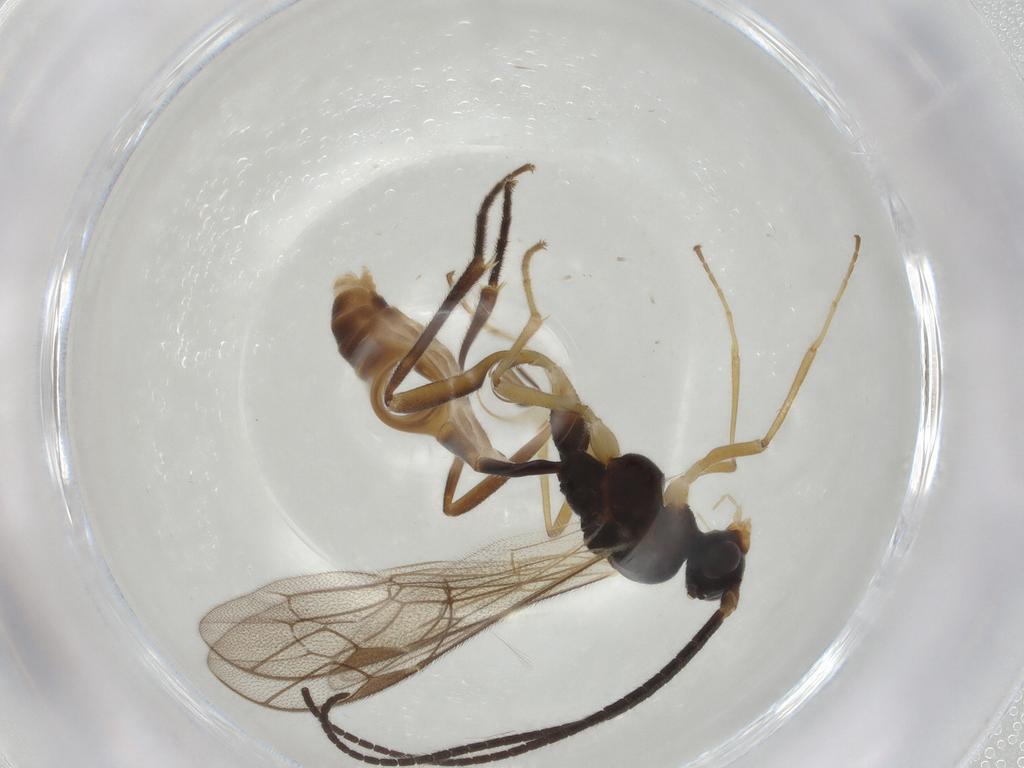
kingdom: Animalia
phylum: Arthropoda
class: Insecta
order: Hymenoptera
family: Ichneumonidae
